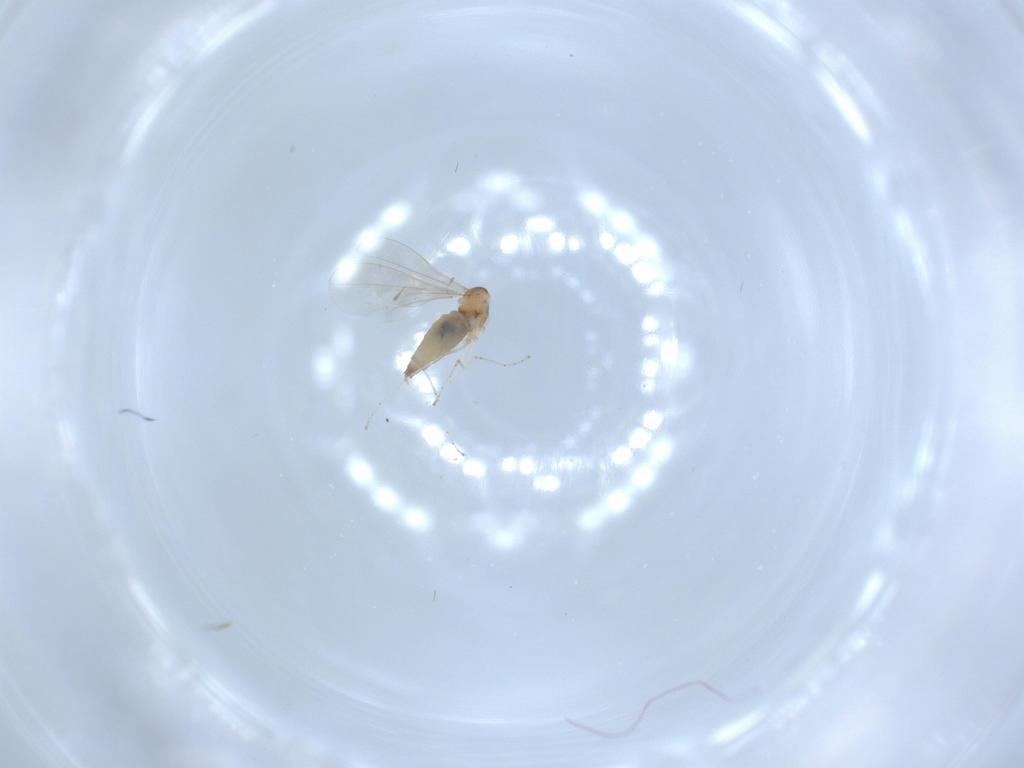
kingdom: Animalia
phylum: Arthropoda
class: Insecta
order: Diptera
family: Cecidomyiidae
